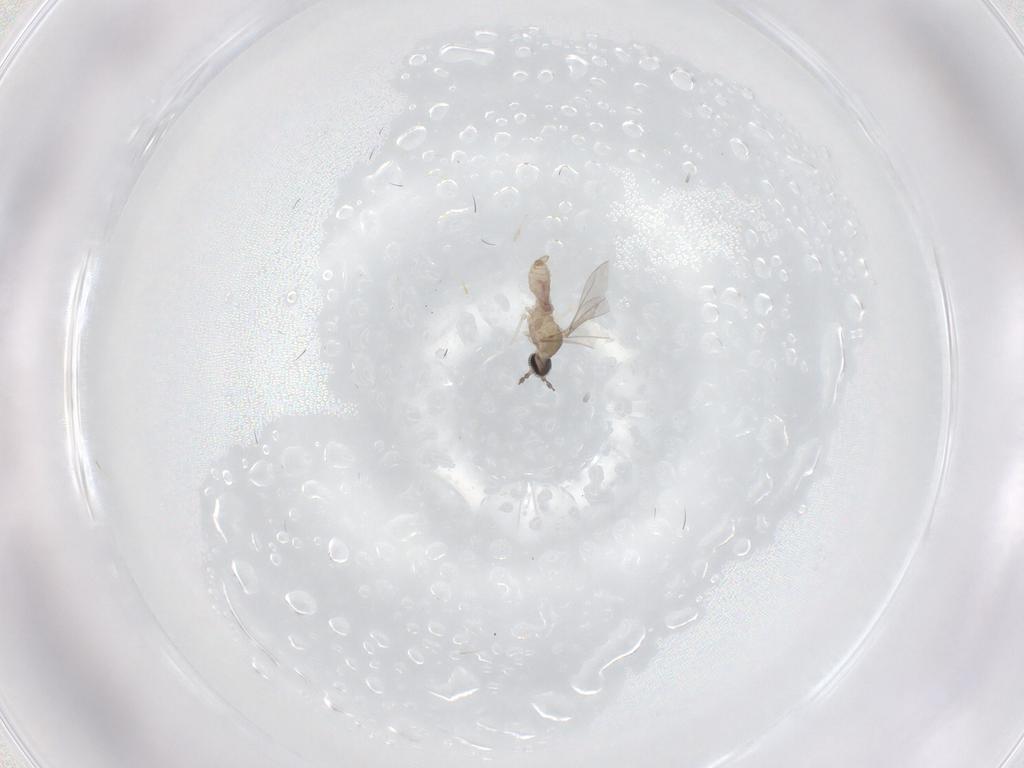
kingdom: Animalia
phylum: Arthropoda
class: Insecta
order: Diptera
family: Cecidomyiidae
